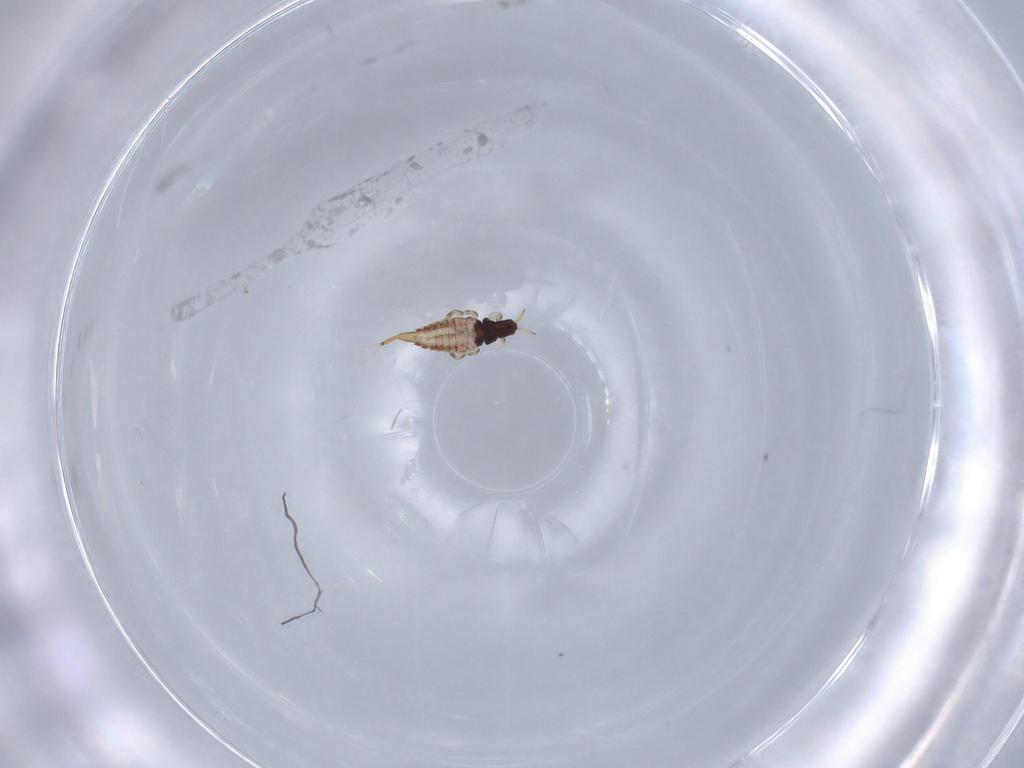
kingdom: Animalia
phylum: Arthropoda
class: Insecta
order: Thysanoptera
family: Phlaeothripidae
